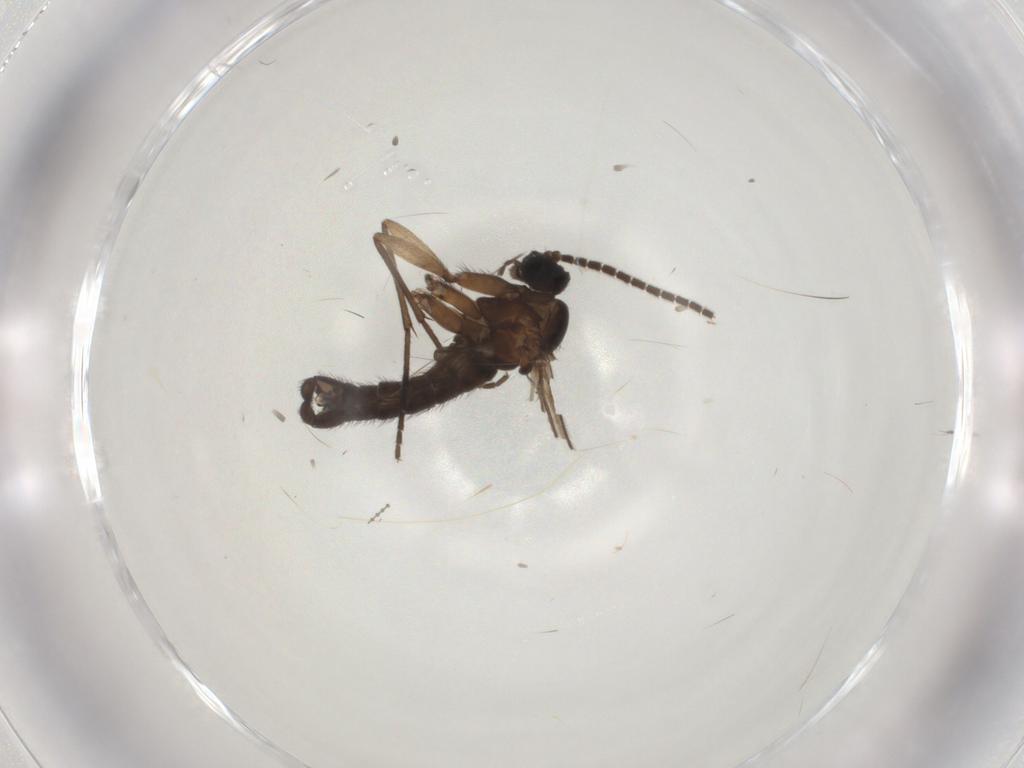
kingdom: Animalia
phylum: Arthropoda
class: Insecta
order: Diptera
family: Sciaridae
